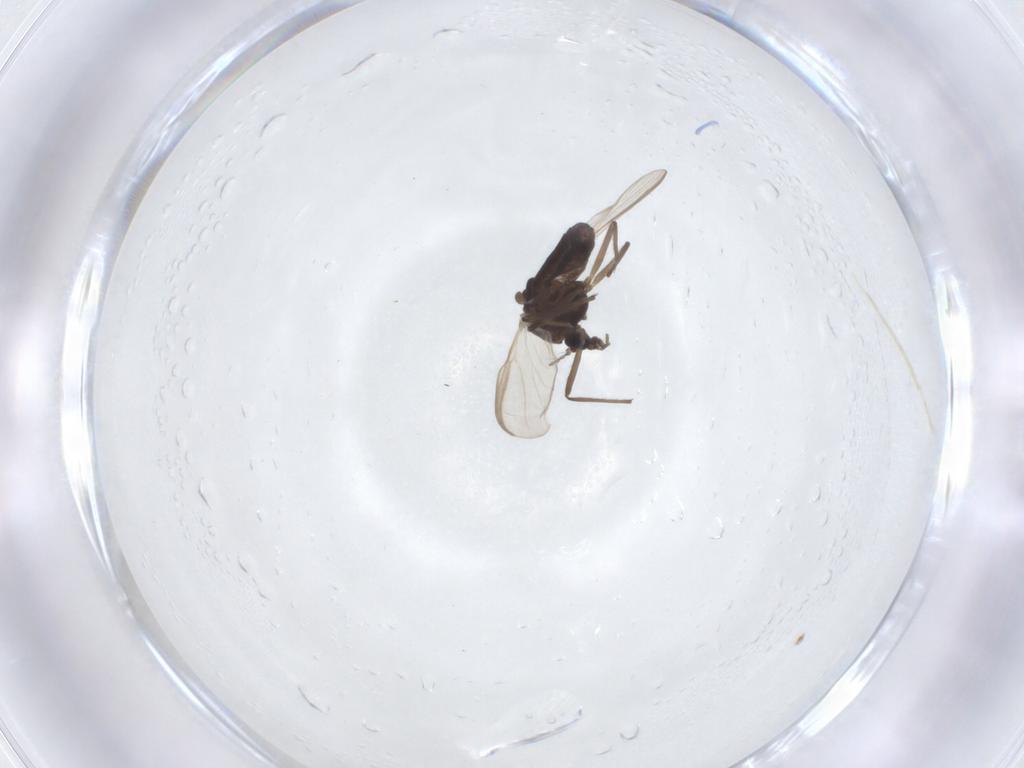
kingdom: Animalia
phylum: Arthropoda
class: Insecta
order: Diptera
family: Chironomidae
